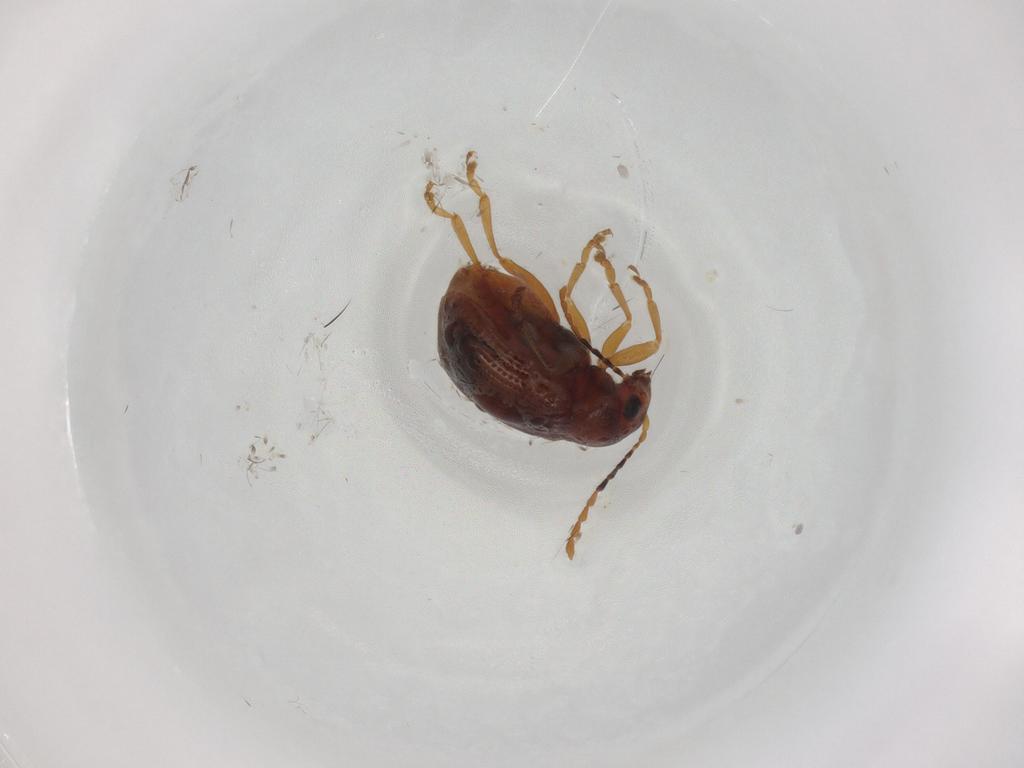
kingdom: Animalia
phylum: Arthropoda
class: Insecta
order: Coleoptera
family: Chrysomelidae
